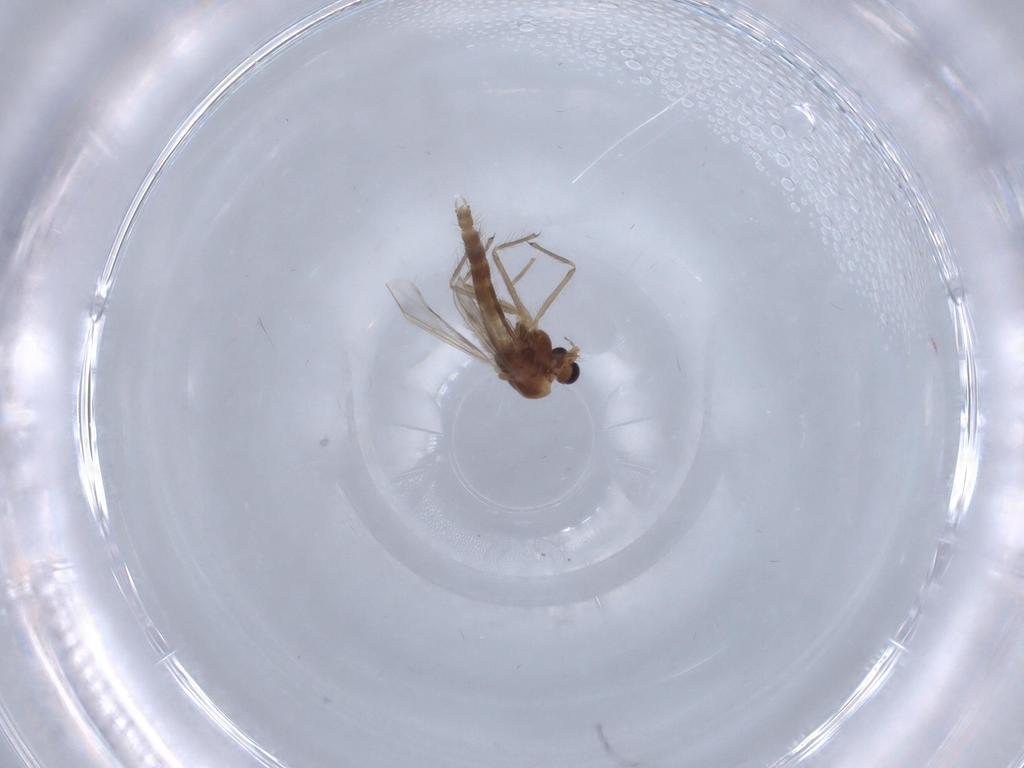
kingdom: Animalia
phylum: Arthropoda
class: Insecta
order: Diptera
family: Chironomidae
